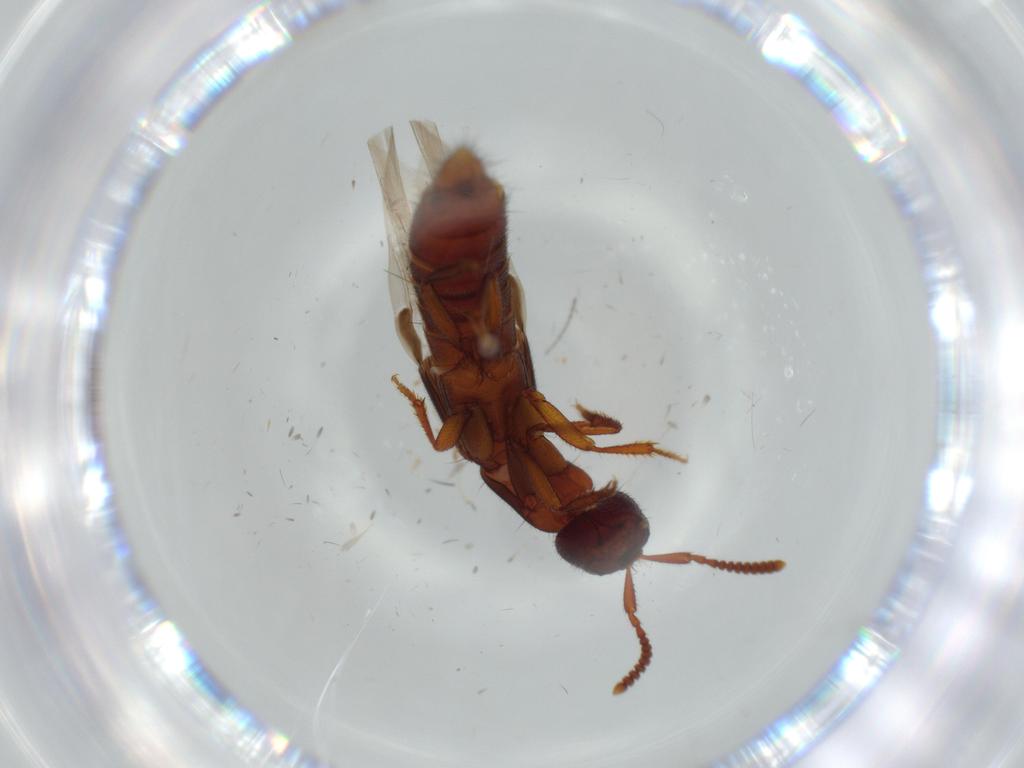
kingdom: Animalia
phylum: Arthropoda
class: Insecta
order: Coleoptera
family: Staphylinidae
